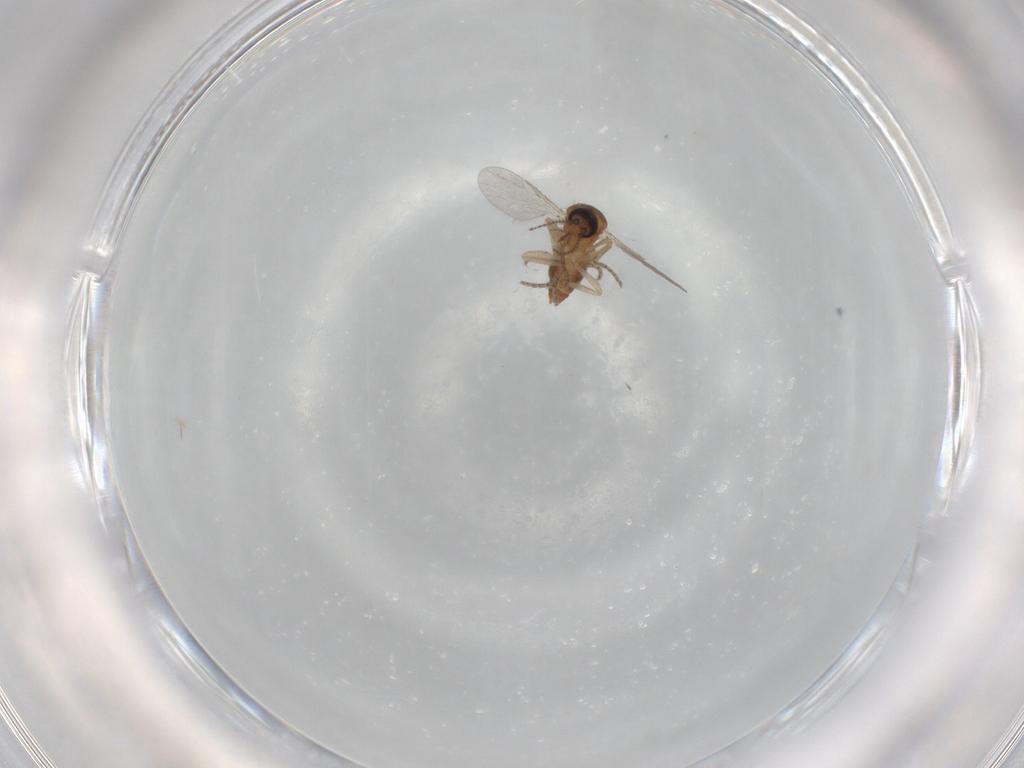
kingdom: Animalia
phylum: Arthropoda
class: Insecta
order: Diptera
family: Ceratopogonidae
